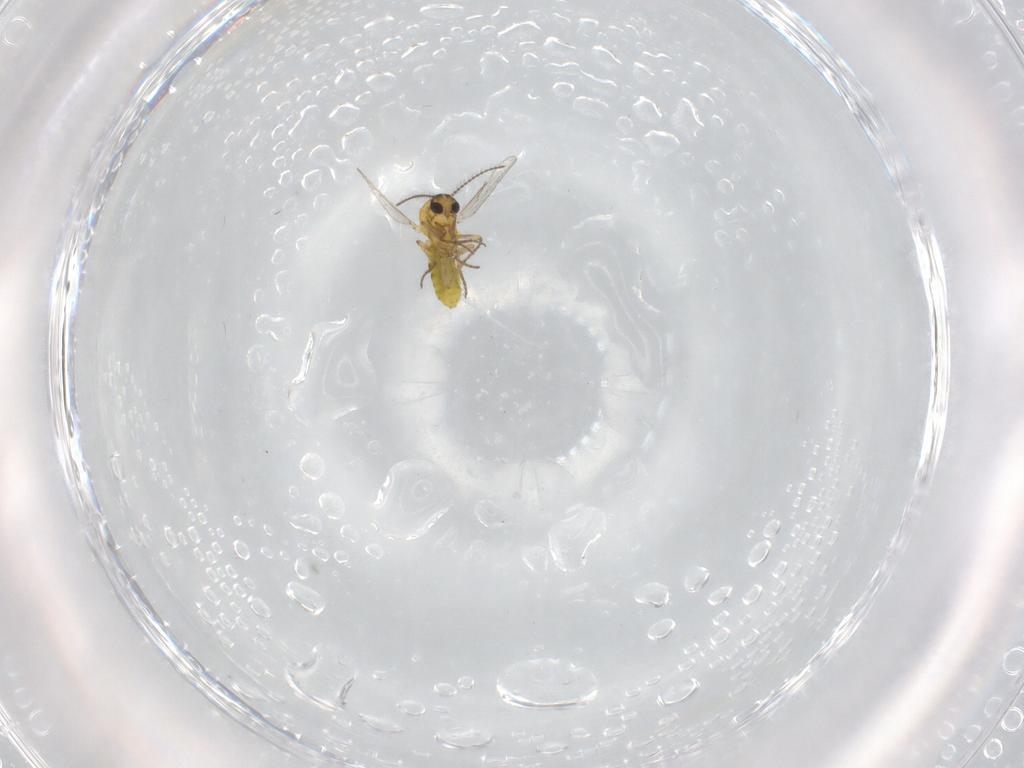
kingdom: Animalia
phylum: Arthropoda
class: Insecta
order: Diptera
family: Ceratopogonidae
